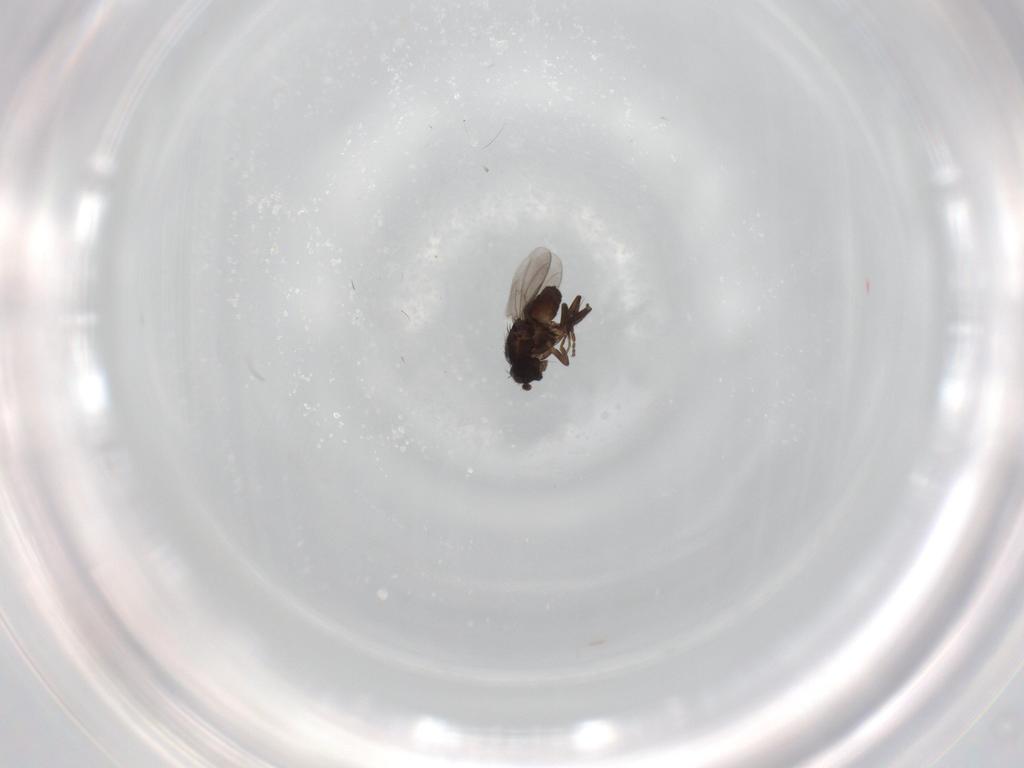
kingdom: Animalia
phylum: Arthropoda
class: Insecta
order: Diptera
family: Sphaeroceridae
